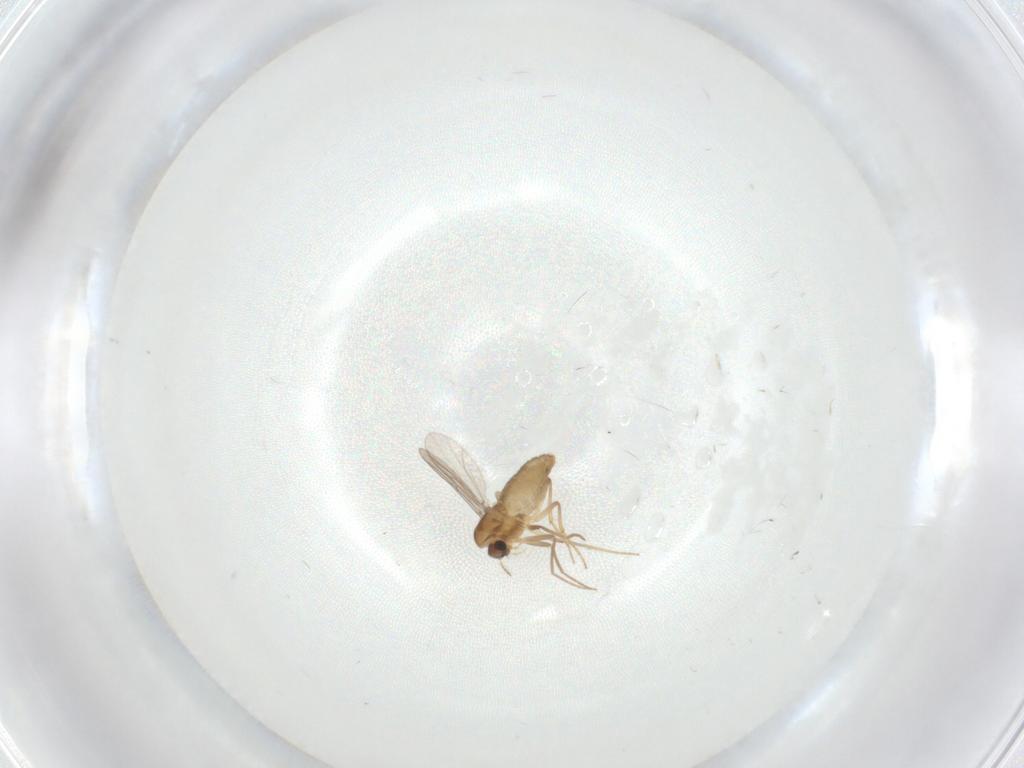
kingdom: Animalia
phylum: Arthropoda
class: Insecta
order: Diptera
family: Chironomidae
